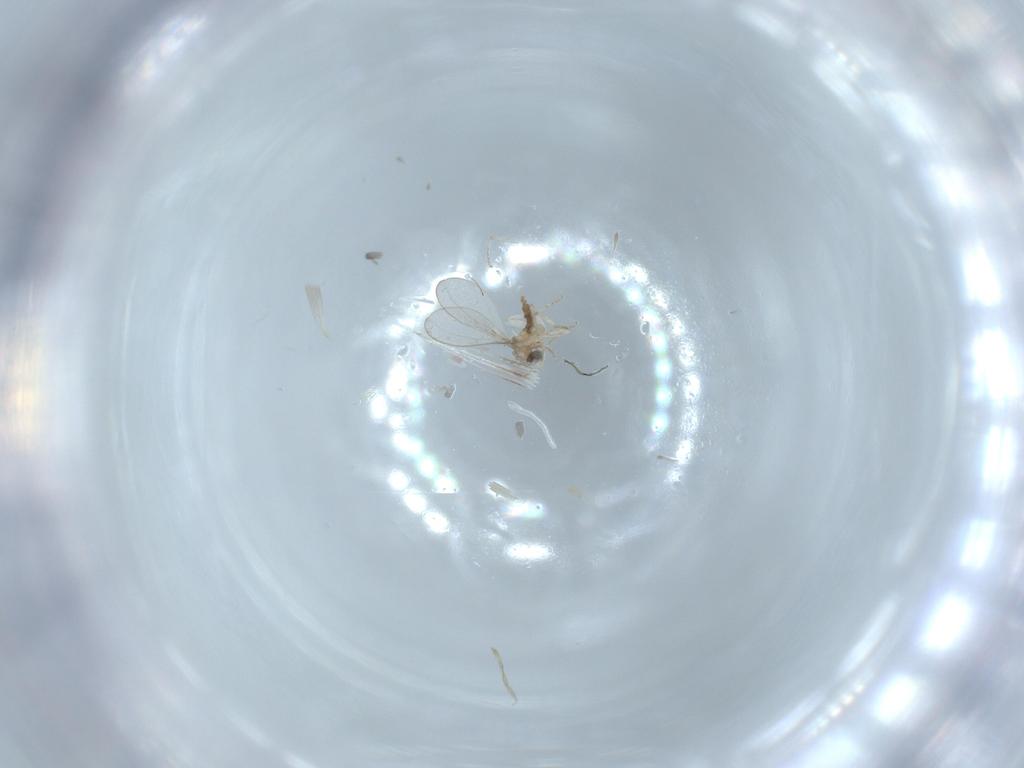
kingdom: Animalia
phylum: Arthropoda
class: Insecta
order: Diptera
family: Cecidomyiidae
